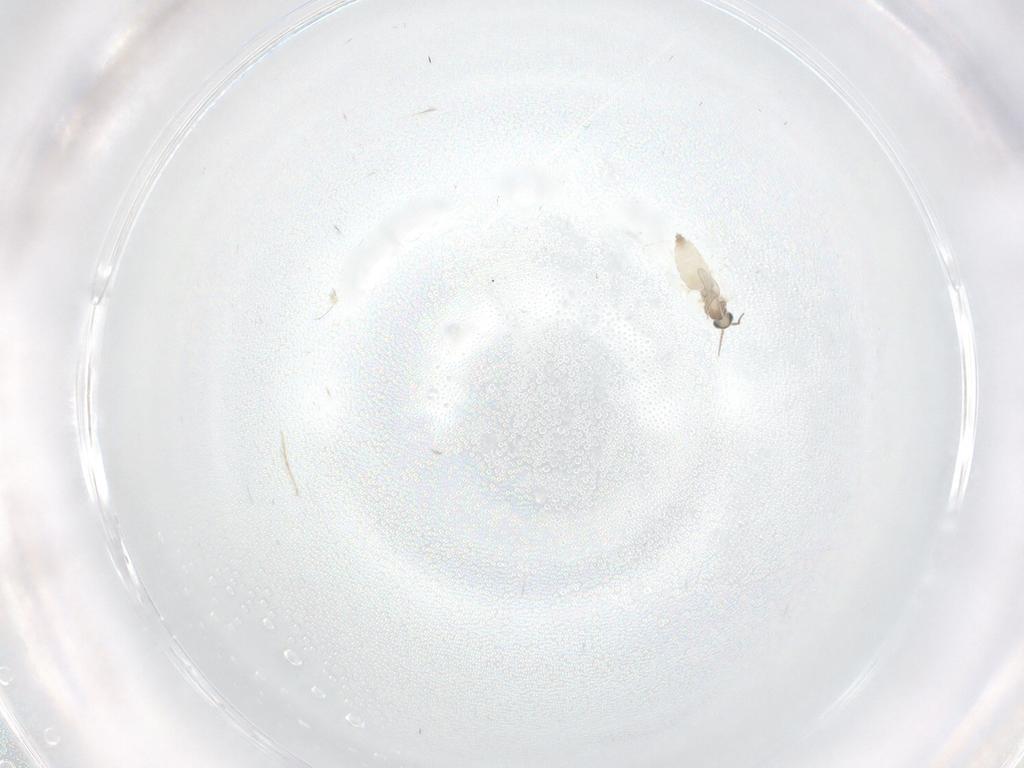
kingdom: Animalia
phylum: Arthropoda
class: Insecta
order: Diptera
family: Cecidomyiidae
